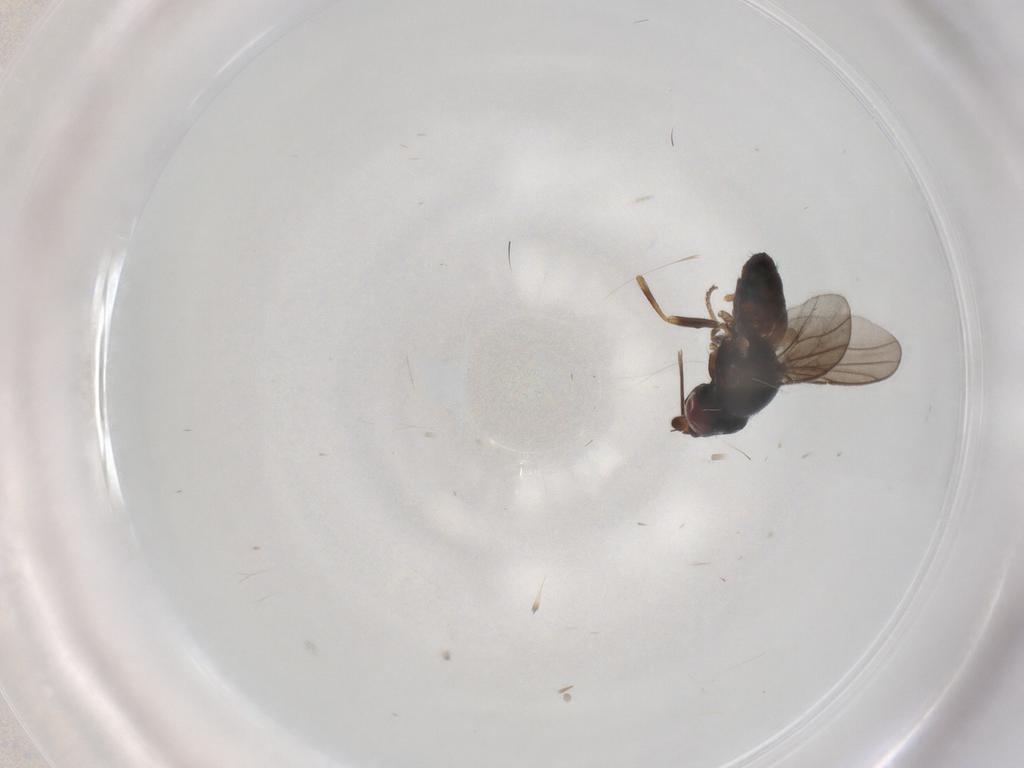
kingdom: Animalia
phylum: Arthropoda
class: Insecta
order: Diptera
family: Chloropidae
